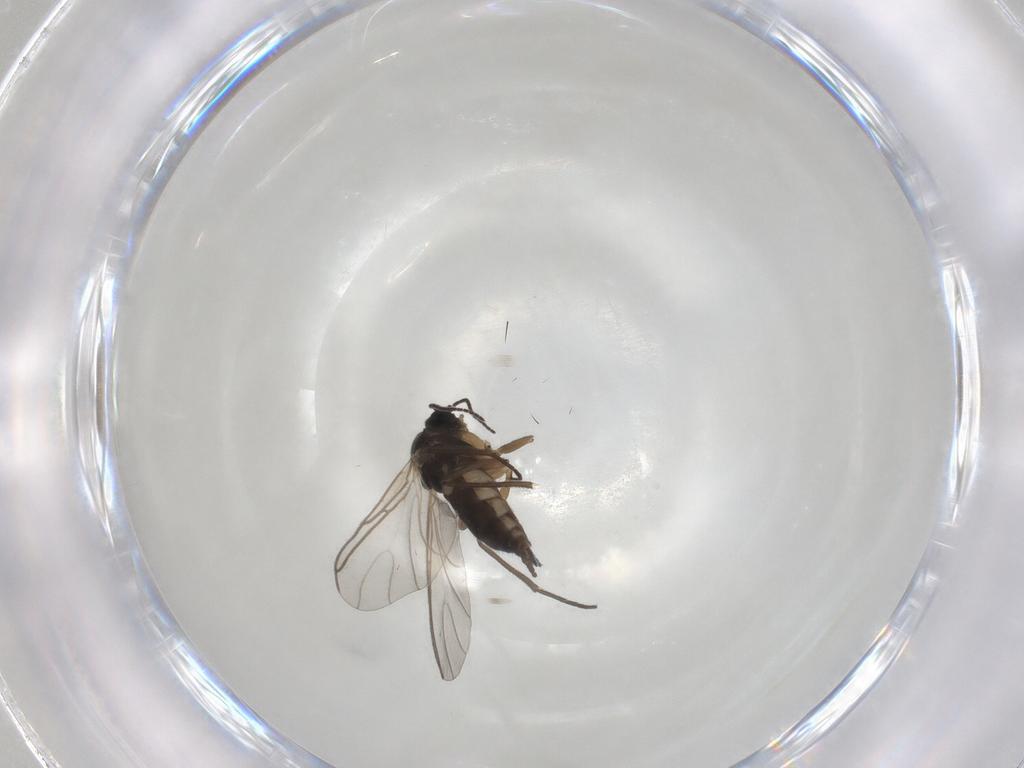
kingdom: Animalia
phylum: Arthropoda
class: Insecta
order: Diptera
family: Sciaridae
